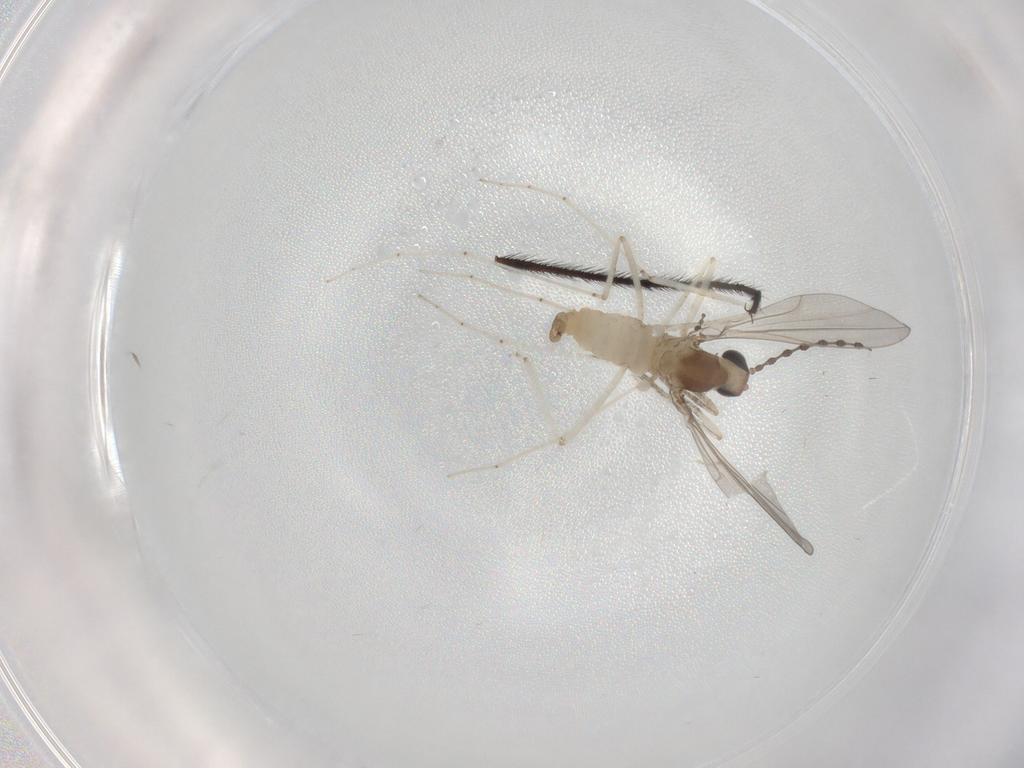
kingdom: Animalia
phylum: Arthropoda
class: Insecta
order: Diptera
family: Cecidomyiidae
